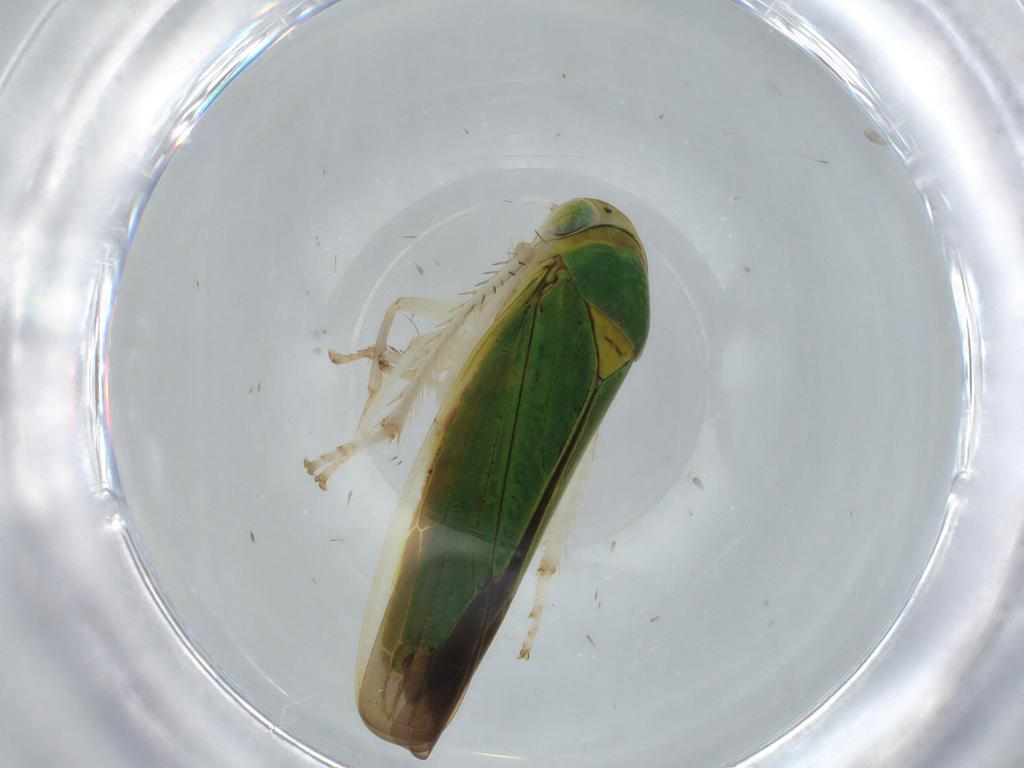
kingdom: Animalia
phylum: Arthropoda
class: Insecta
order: Hemiptera
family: Cicadellidae
